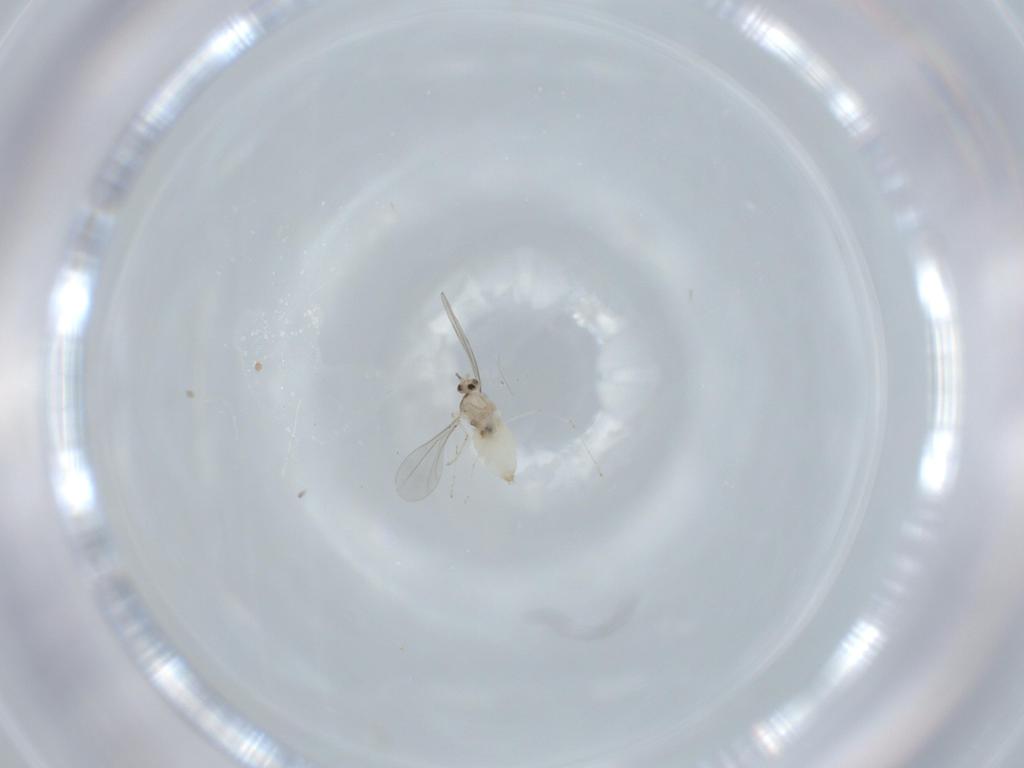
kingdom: Animalia
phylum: Arthropoda
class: Insecta
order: Diptera
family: Cecidomyiidae
